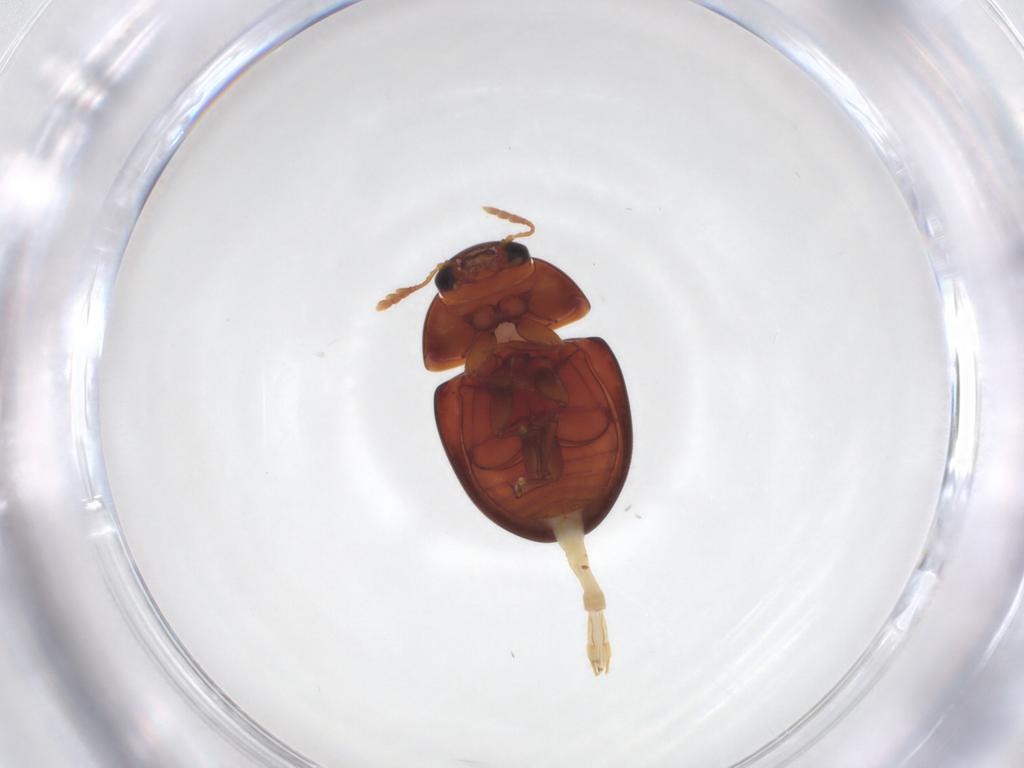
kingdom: Animalia
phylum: Arthropoda
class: Insecta
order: Coleoptera
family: Phalacridae
